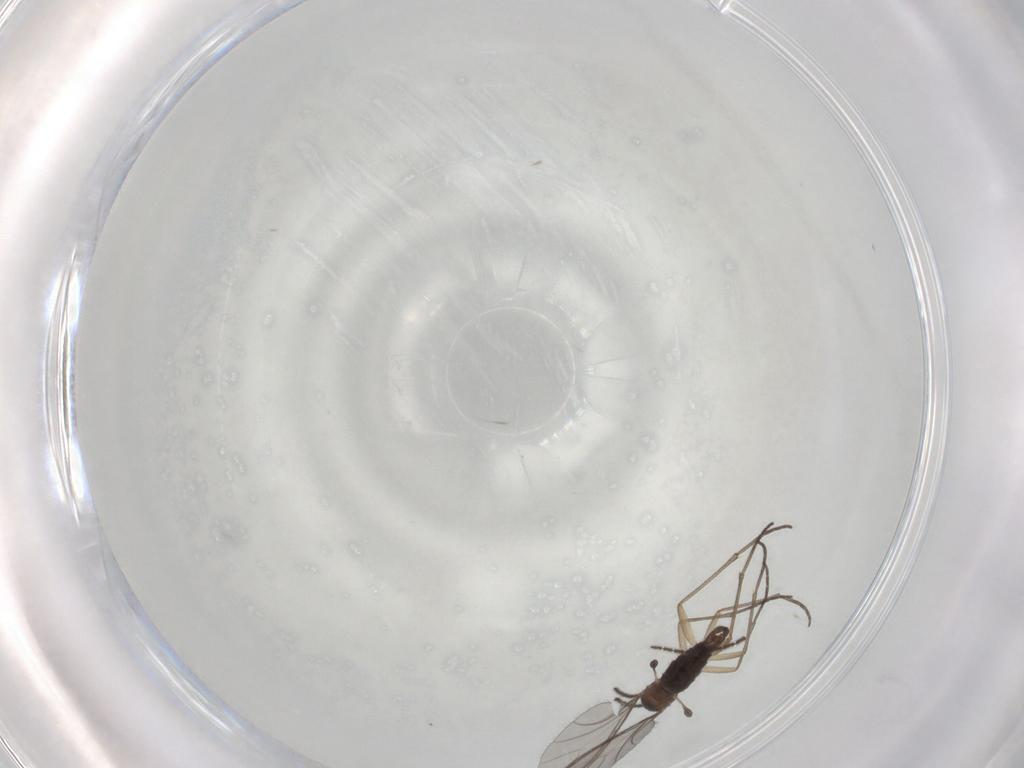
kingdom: Animalia
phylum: Arthropoda
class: Insecta
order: Diptera
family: Sciaridae
